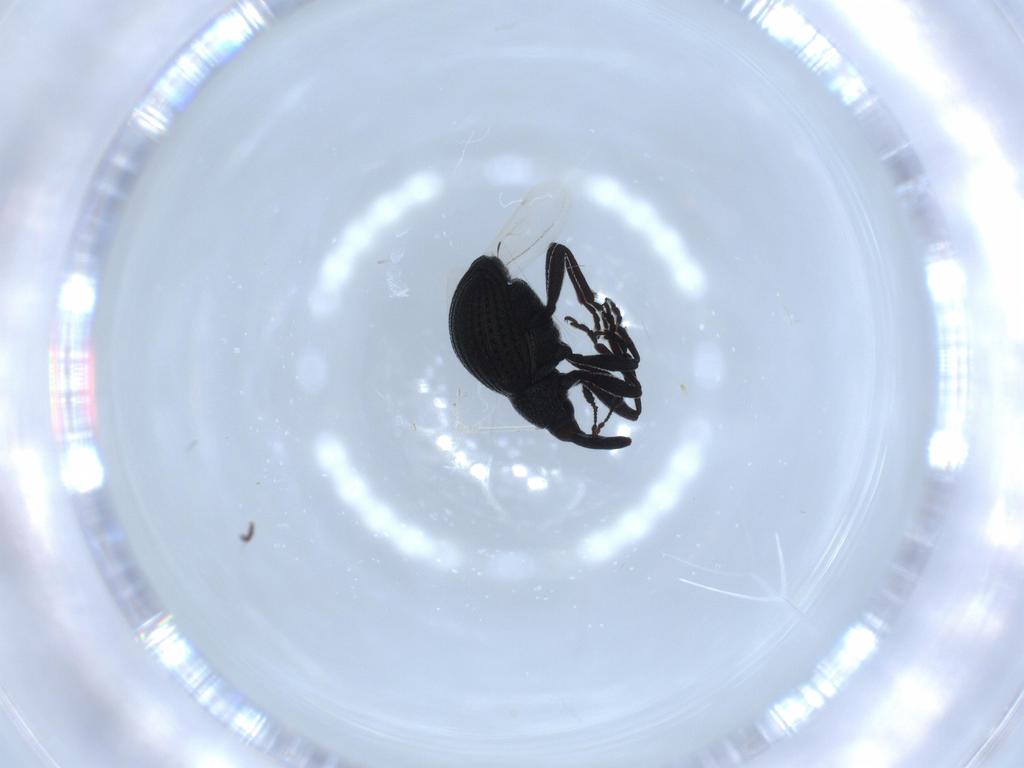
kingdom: Animalia
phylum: Arthropoda
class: Insecta
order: Coleoptera
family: Brentidae
